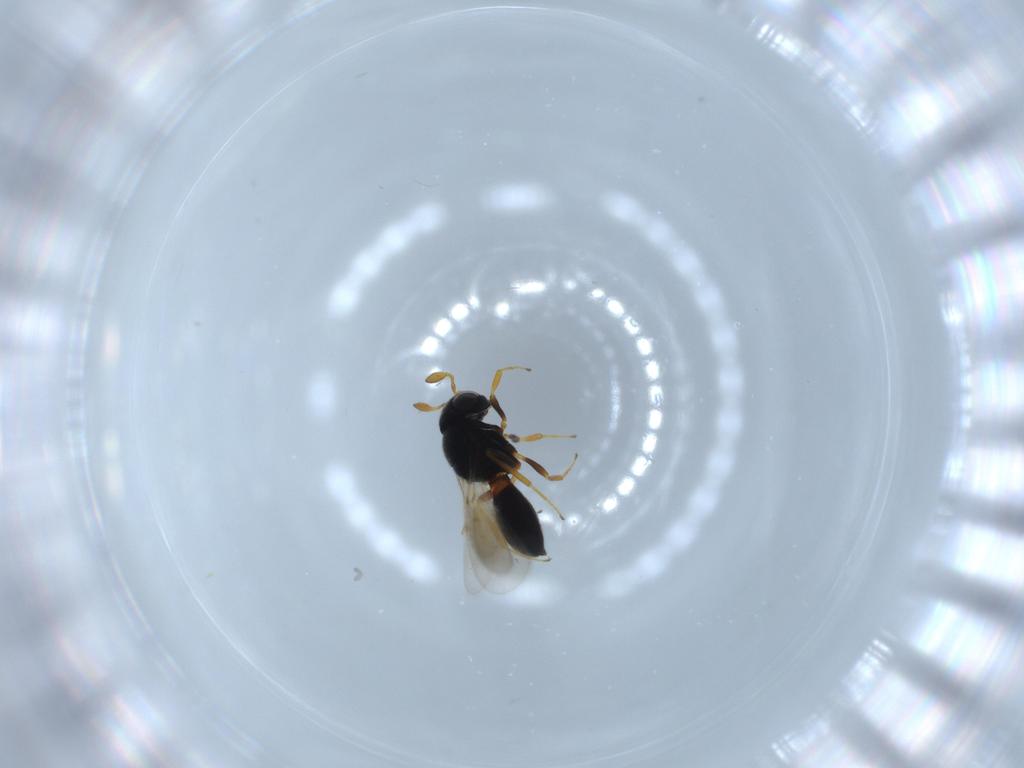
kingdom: Animalia
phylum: Arthropoda
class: Insecta
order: Hymenoptera
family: Scelionidae
